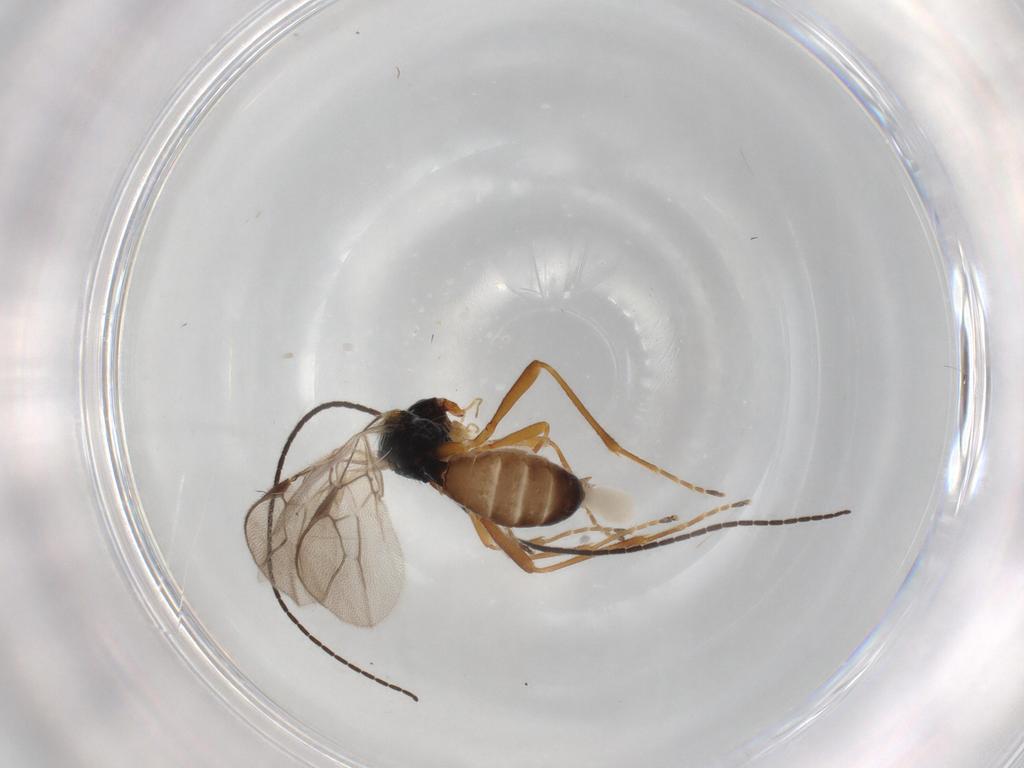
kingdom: Animalia
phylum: Arthropoda
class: Insecta
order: Hymenoptera
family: Braconidae
